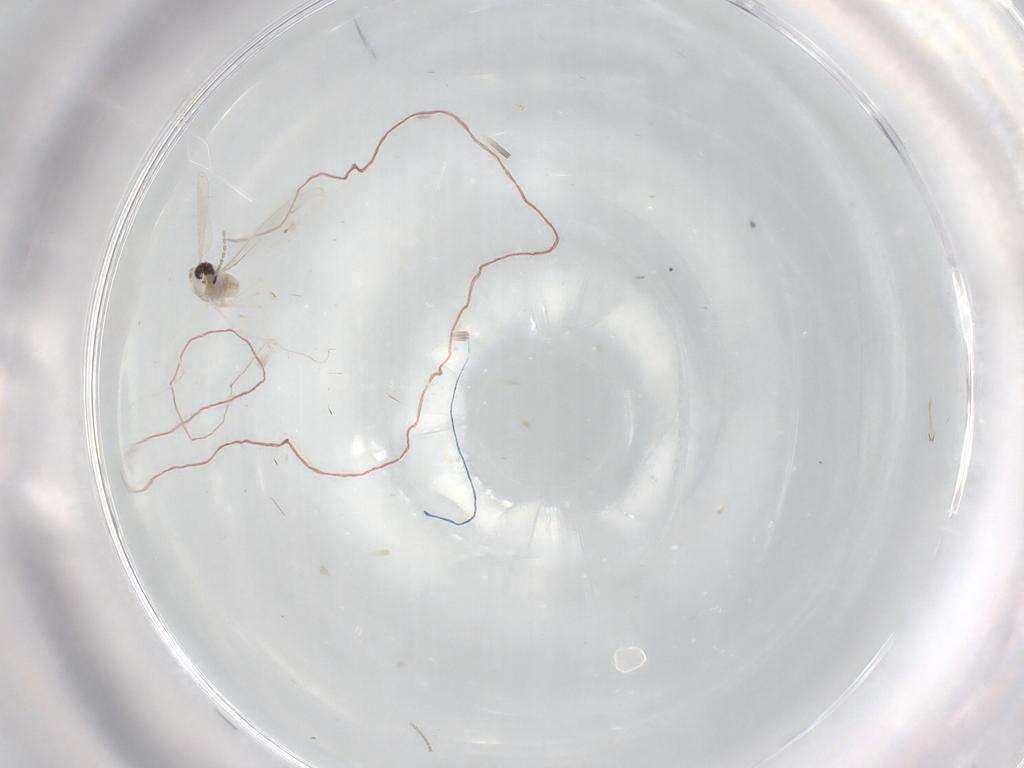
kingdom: Animalia
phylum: Arthropoda
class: Insecta
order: Diptera
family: Cecidomyiidae
